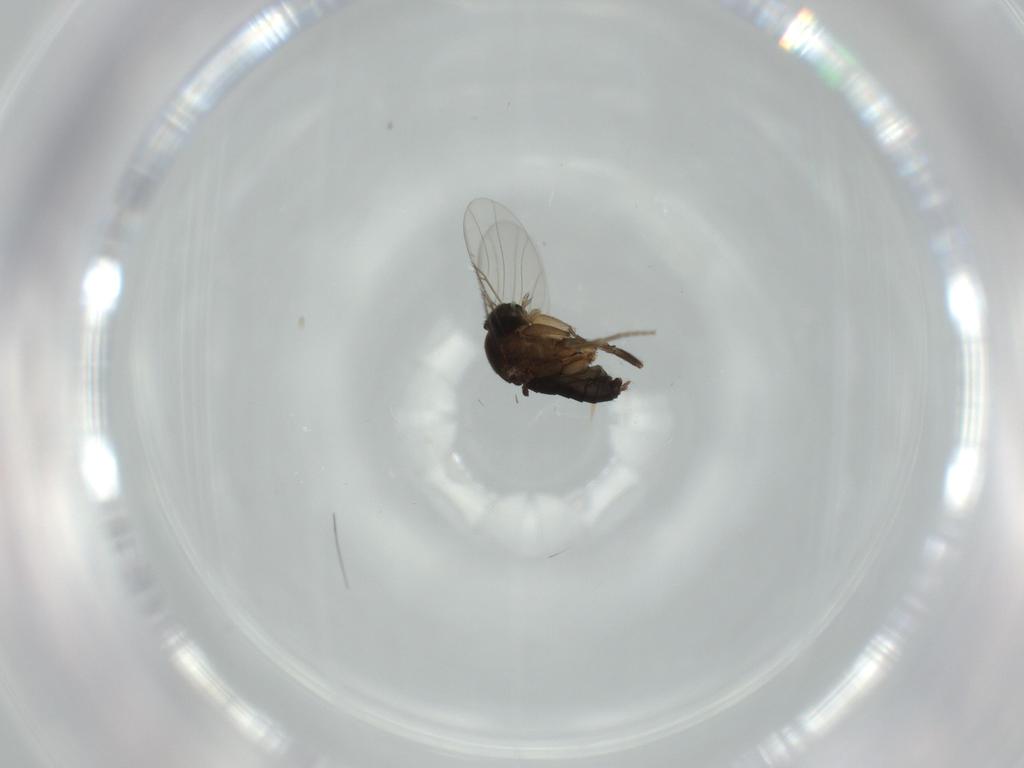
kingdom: Animalia
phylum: Arthropoda
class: Insecta
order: Diptera
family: Phoridae
